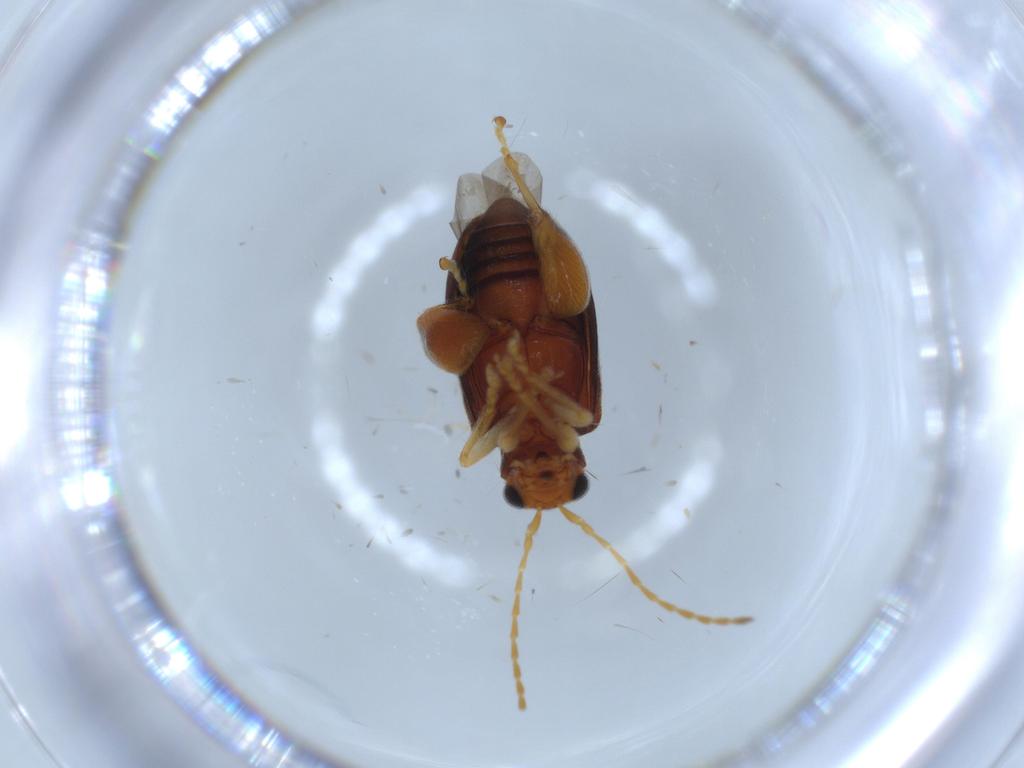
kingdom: Animalia
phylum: Arthropoda
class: Insecta
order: Coleoptera
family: Chrysomelidae
